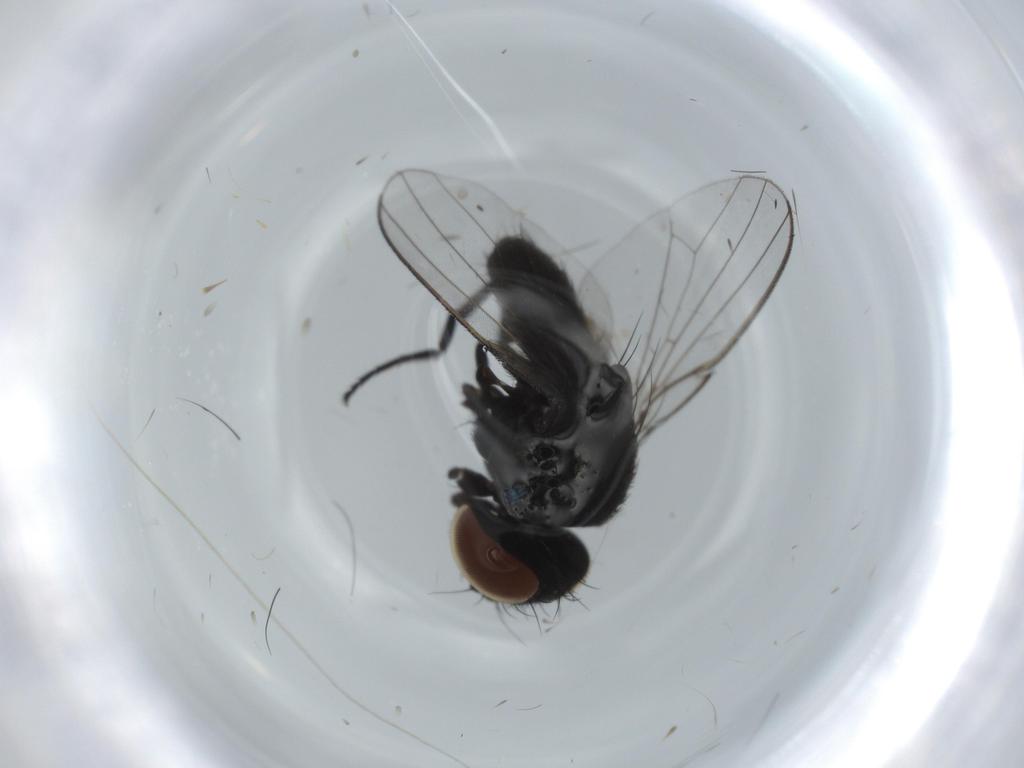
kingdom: Animalia
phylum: Arthropoda
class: Insecta
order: Diptera
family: Milichiidae
